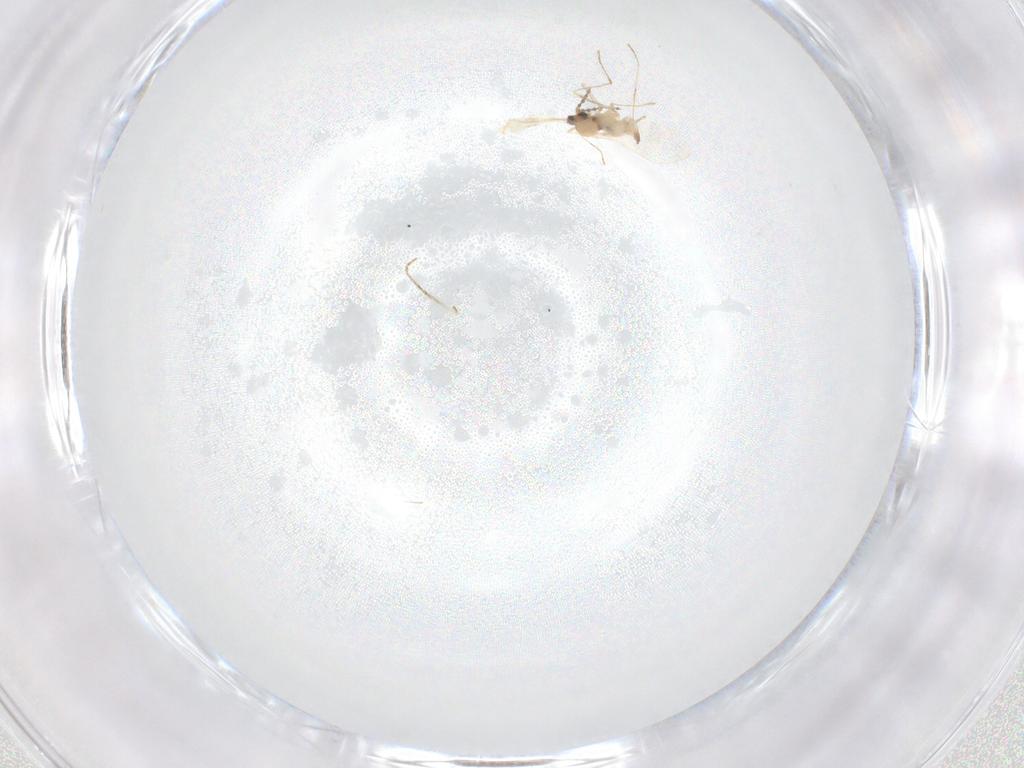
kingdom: Animalia
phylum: Arthropoda
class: Insecta
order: Diptera
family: Cecidomyiidae
